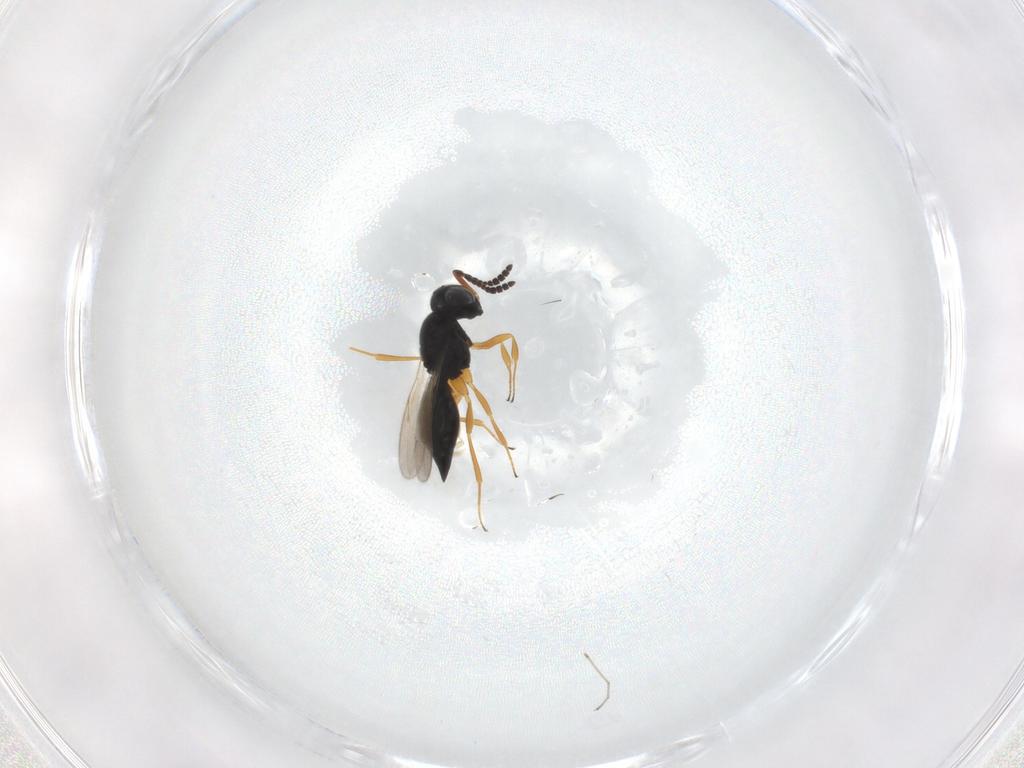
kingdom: Animalia
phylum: Arthropoda
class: Insecta
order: Hymenoptera
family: Scelionidae
